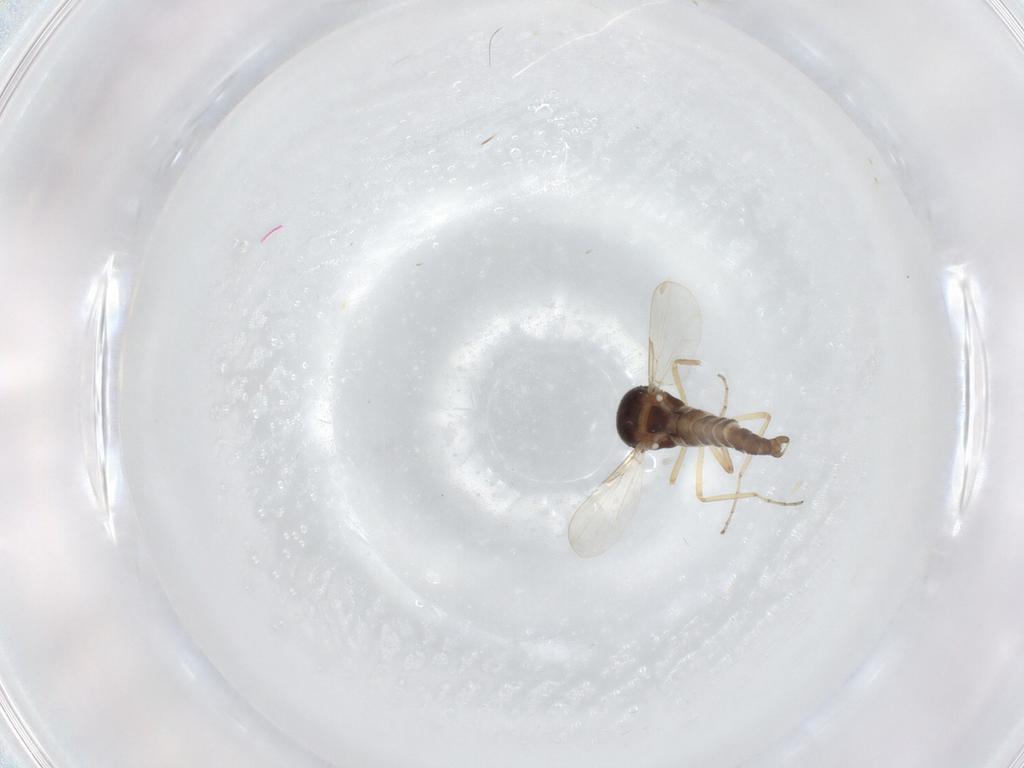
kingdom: Animalia
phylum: Arthropoda
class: Insecta
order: Diptera
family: Ceratopogonidae
